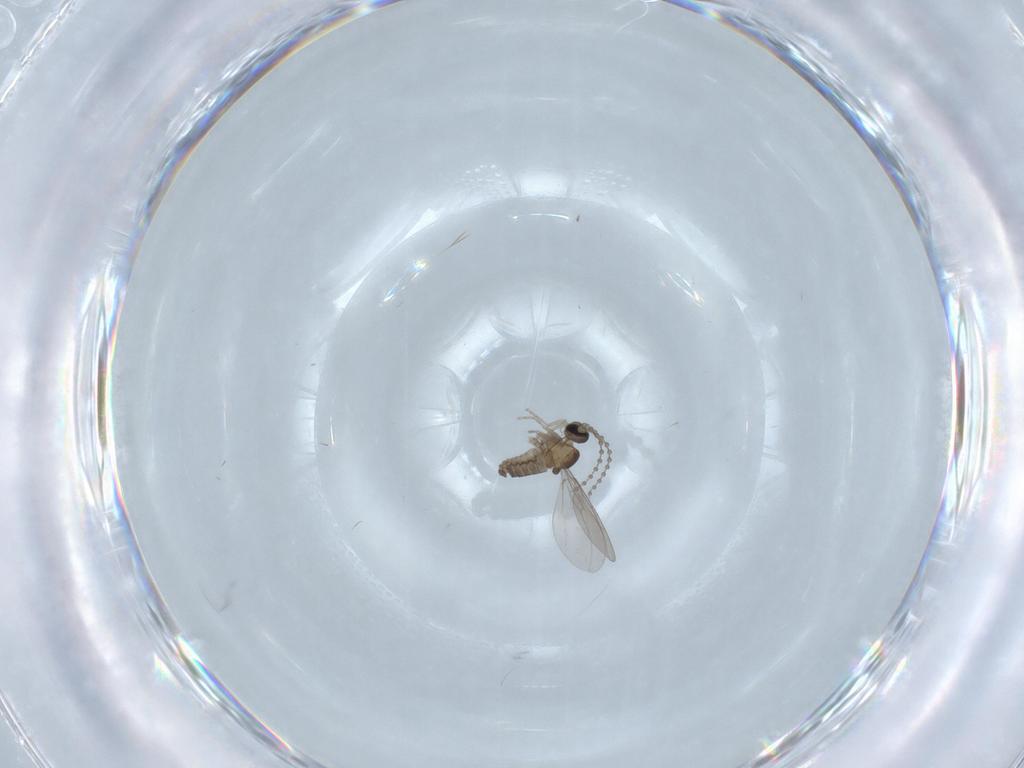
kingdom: Animalia
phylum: Arthropoda
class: Insecta
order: Diptera
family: Cecidomyiidae
